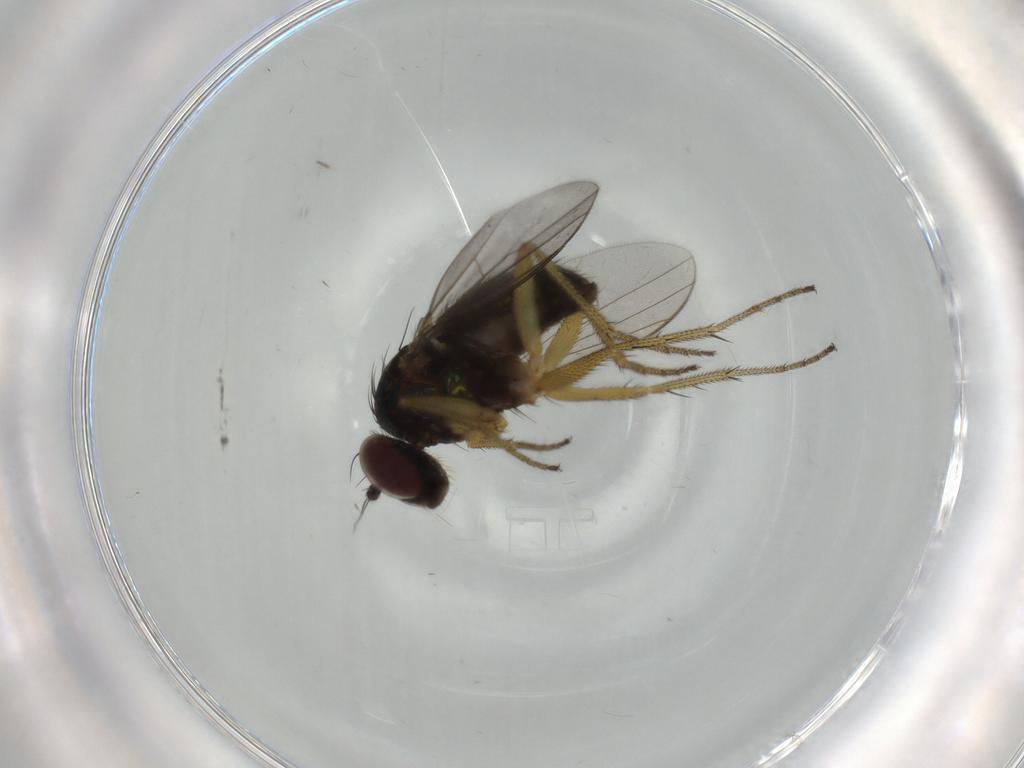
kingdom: Animalia
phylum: Arthropoda
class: Insecta
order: Diptera
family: Dolichopodidae
